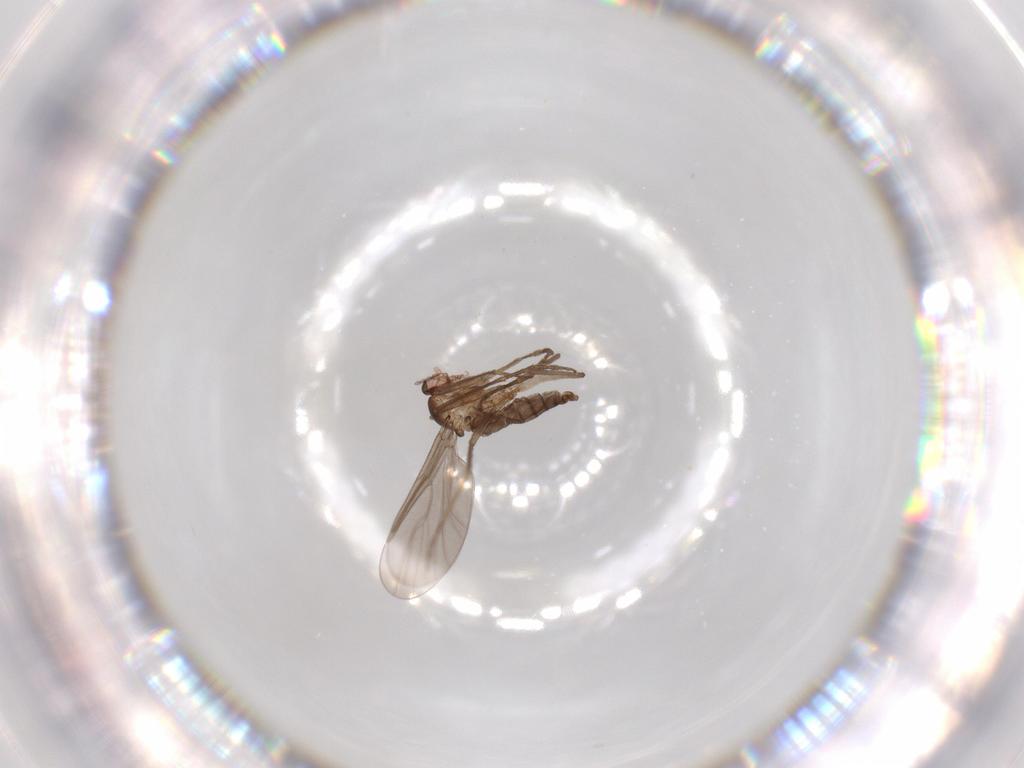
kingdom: Animalia
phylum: Arthropoda
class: Insecta
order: Diptera
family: Cecidomyiidae
